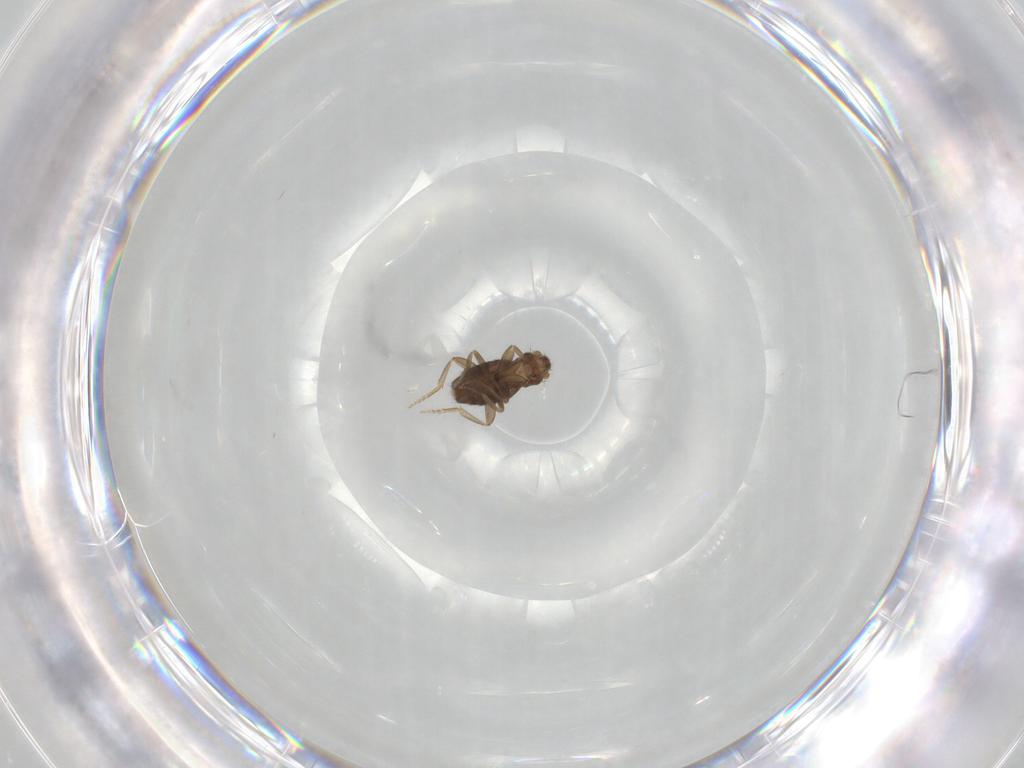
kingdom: Animalia
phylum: Arthropoda
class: Insecta
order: Diptera
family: Phoridae
